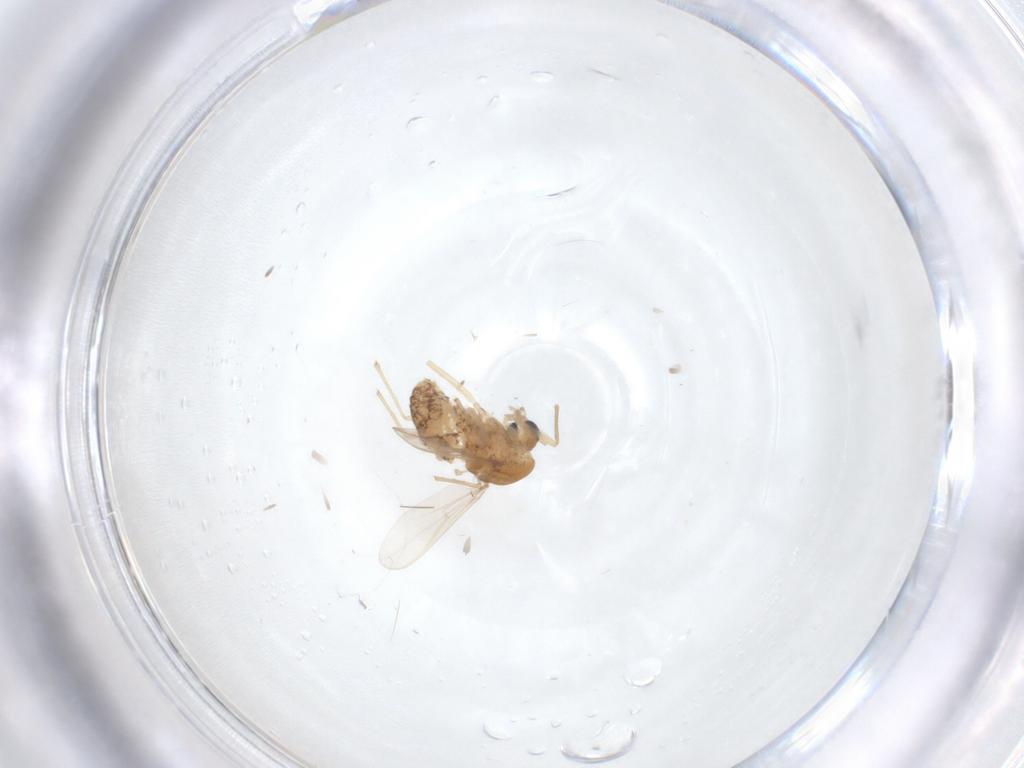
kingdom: Animalia
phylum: Arthropoda
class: Insecta
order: Diptera
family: Chironomidae
